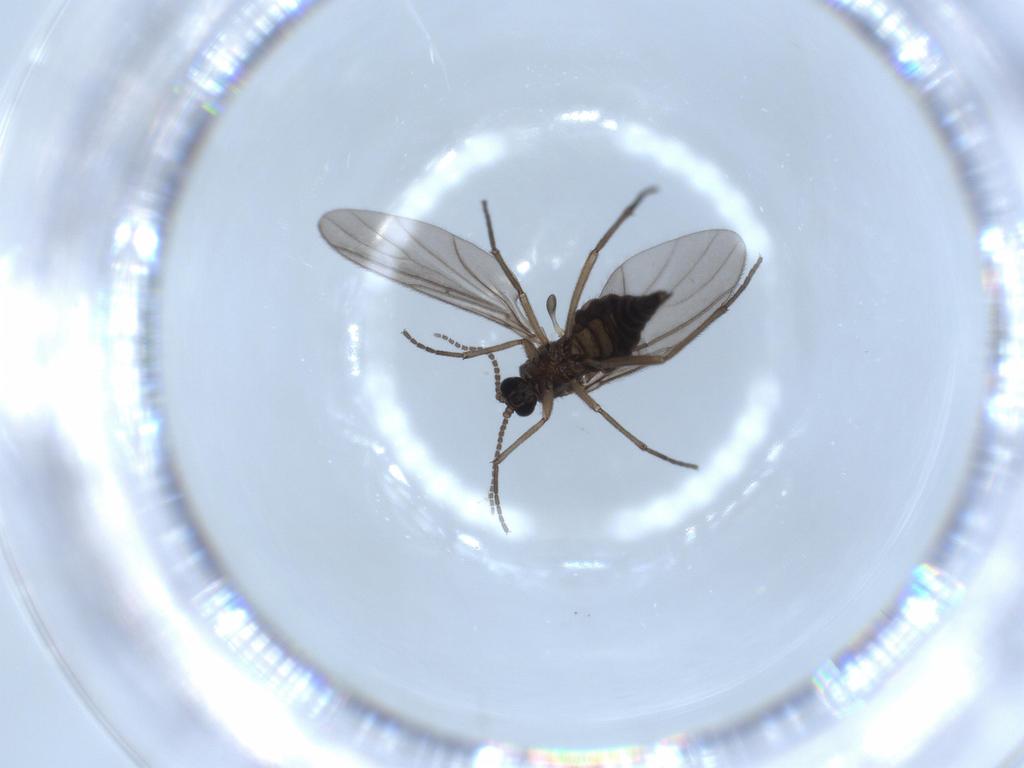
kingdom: Animalia
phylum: Arthropoda
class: Insecta
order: Diptera
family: Sciaridae
